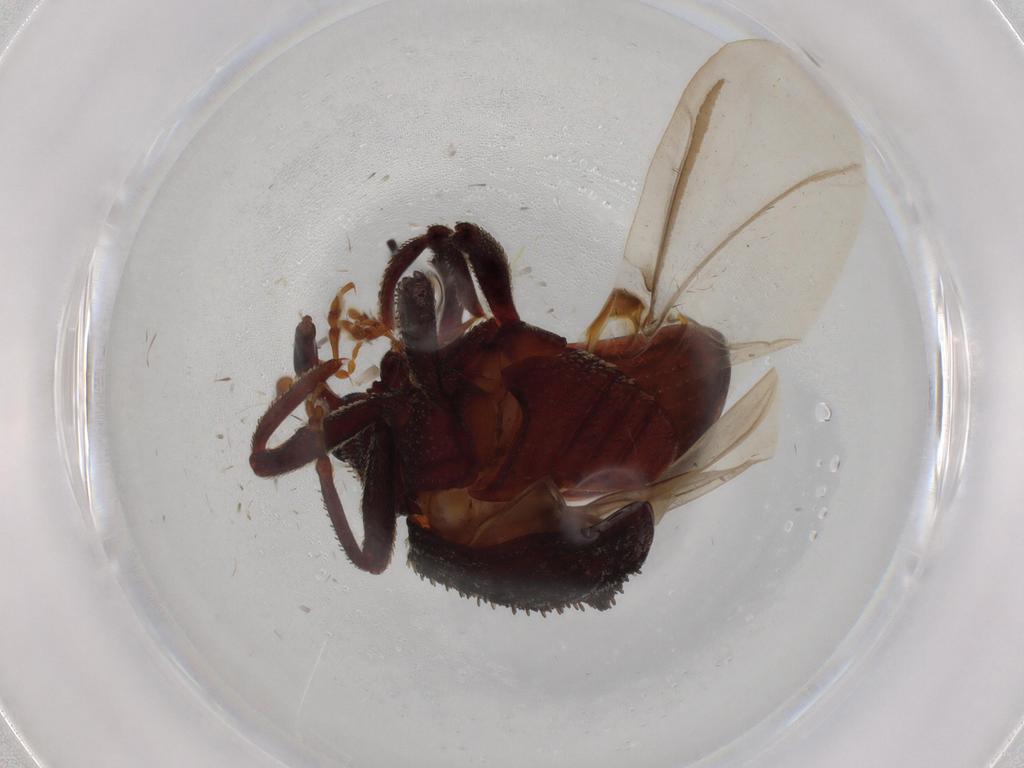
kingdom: Animalia
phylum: Arthropoda
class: Insecta
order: Coleoptera
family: Curculionidae
